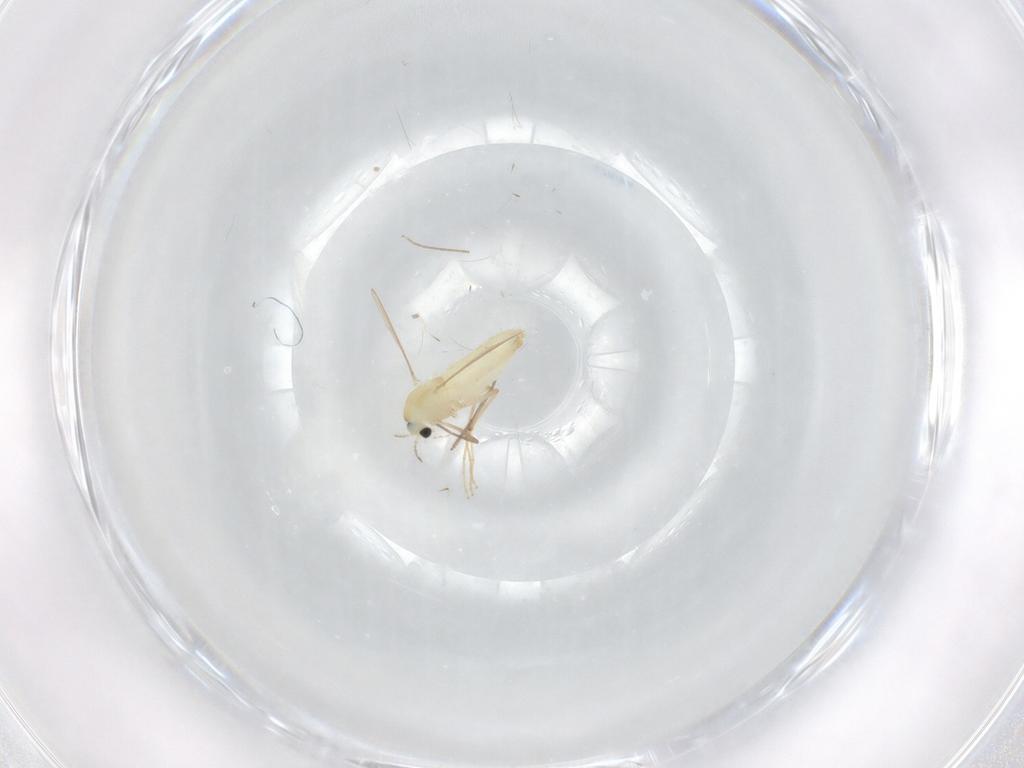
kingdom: Animalia
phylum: Arthropoda
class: Insecta
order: Diptera
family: Chironomidae
